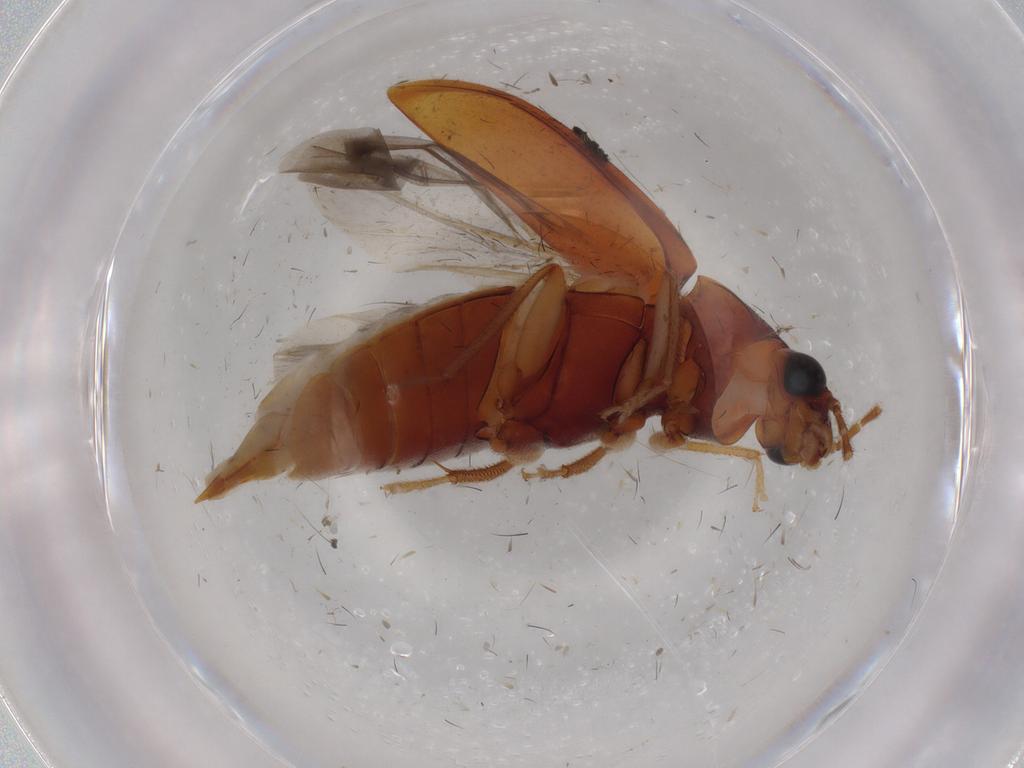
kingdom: Animalia
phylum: Arthropoda
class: Insecta
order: Coleoptera
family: Ptilodactylidae
